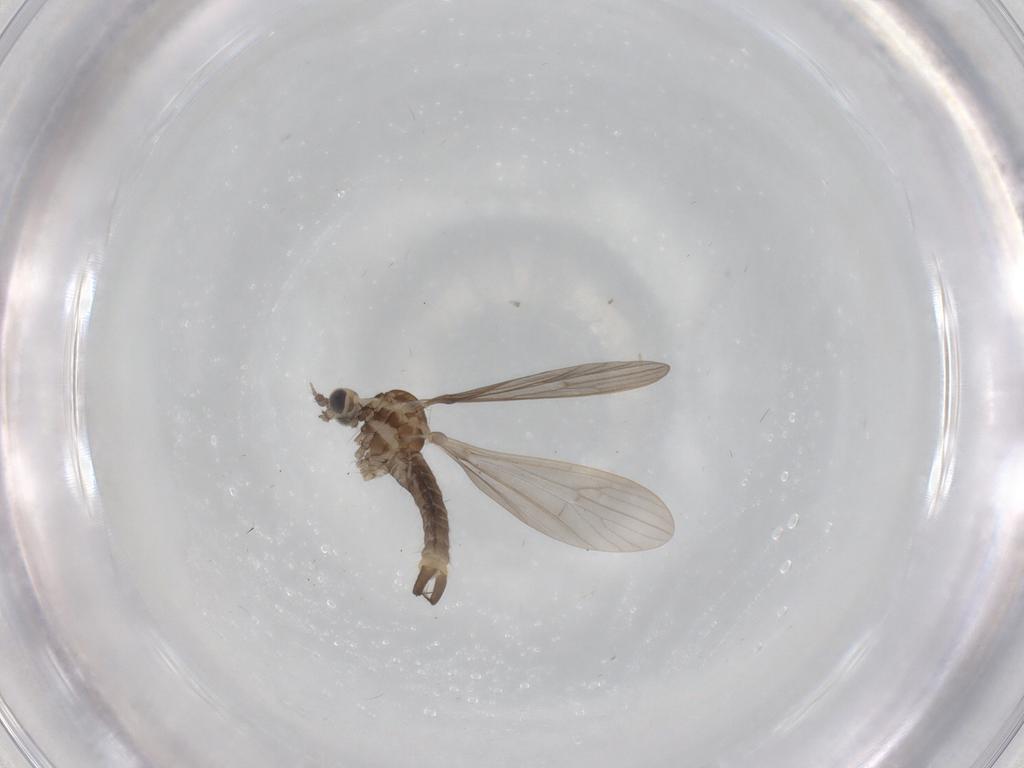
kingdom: Animalia
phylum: Arthropoda
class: Insecta
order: Diptera
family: Limoniidae
